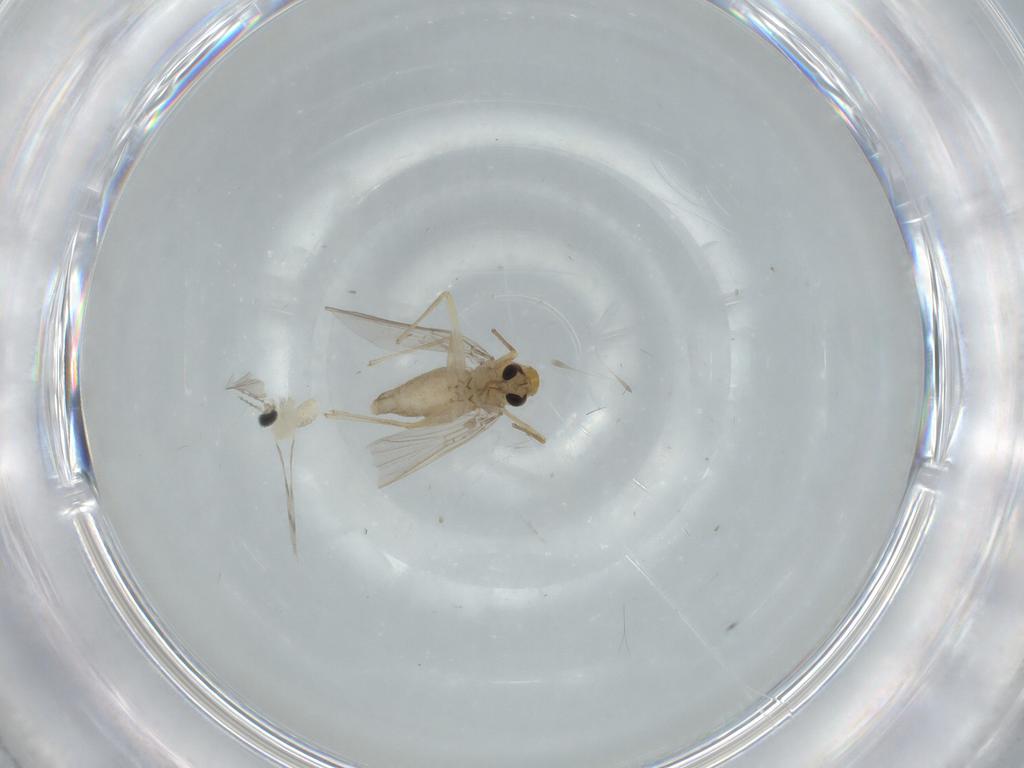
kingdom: Animalia
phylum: Arthropoda
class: Insecta
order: Diptera
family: Chironomidae
